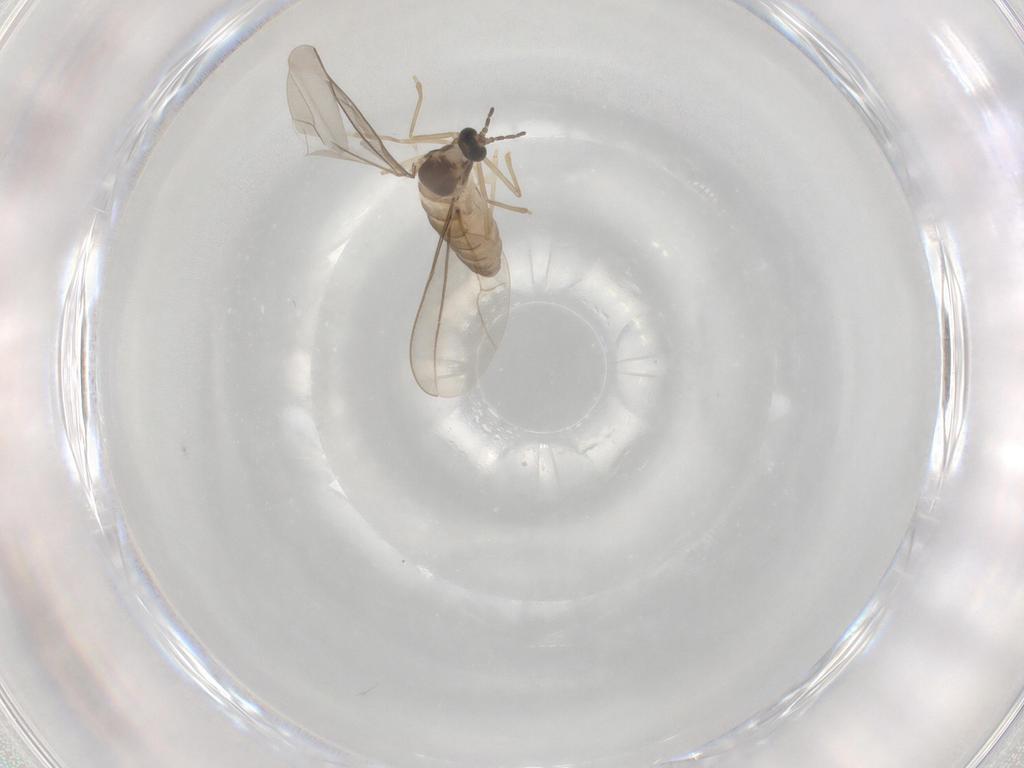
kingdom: Animalia
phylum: Arthropoda
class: Insecta
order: Diptera
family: Cecidomyiidae
